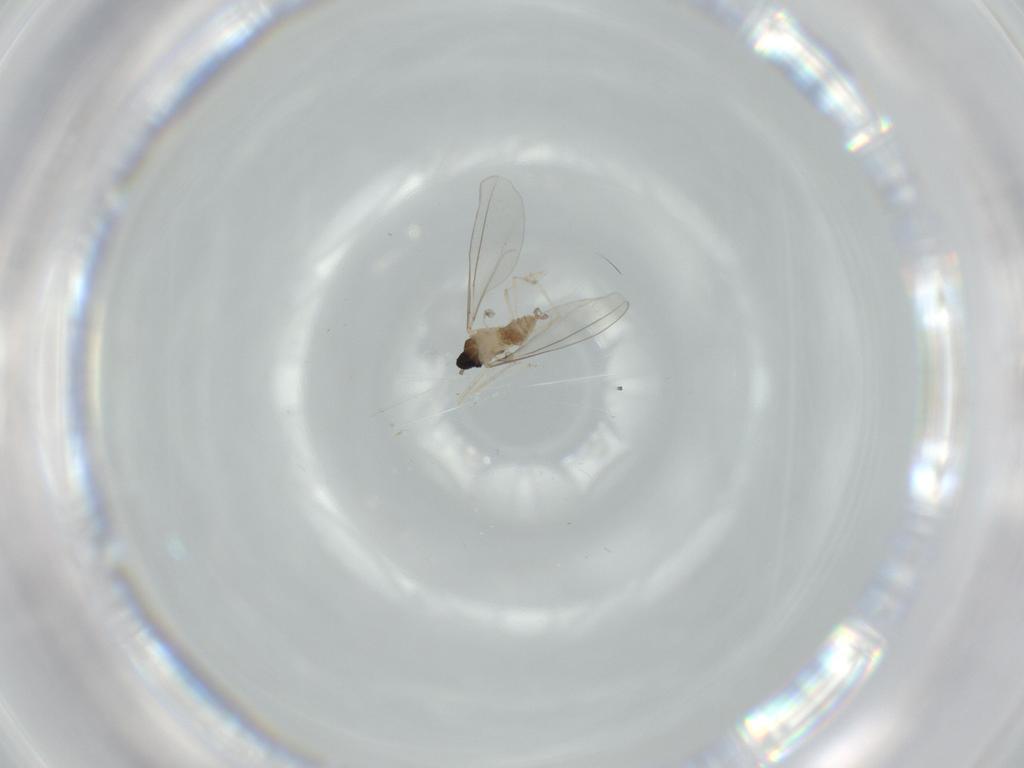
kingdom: Animalia
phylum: Arthropoda
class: Insecta
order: Diptera
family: Cecidomyiidae
